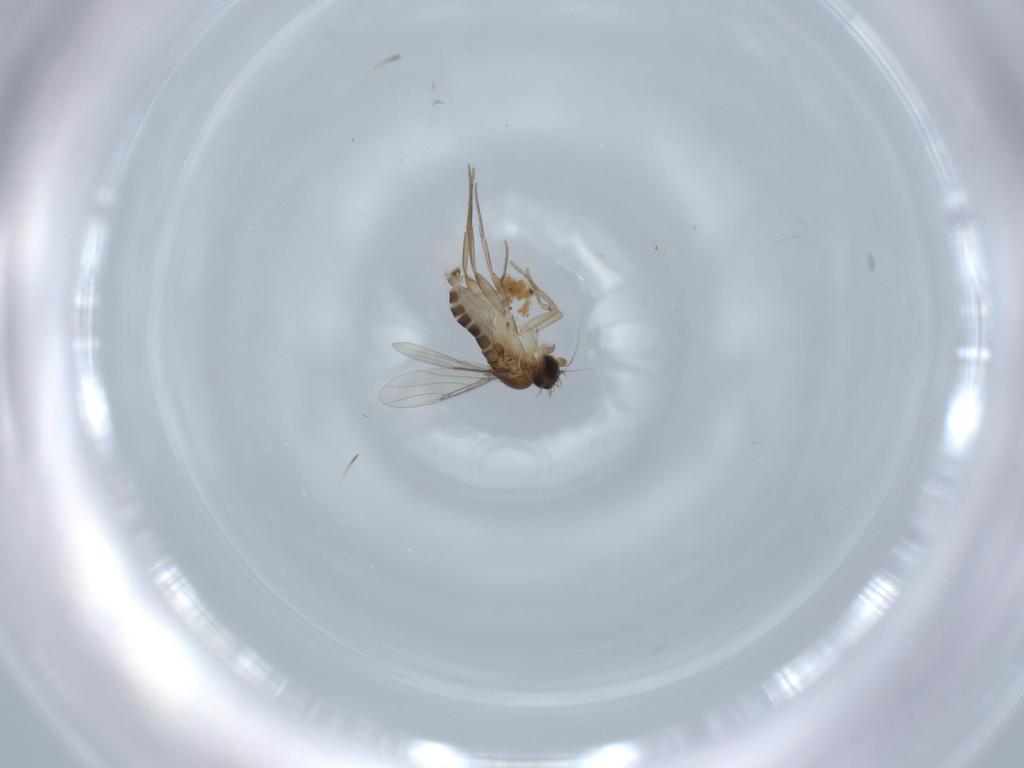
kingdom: Animalia
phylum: Arthropoda
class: Insecta
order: Diptera
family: Phoridae
